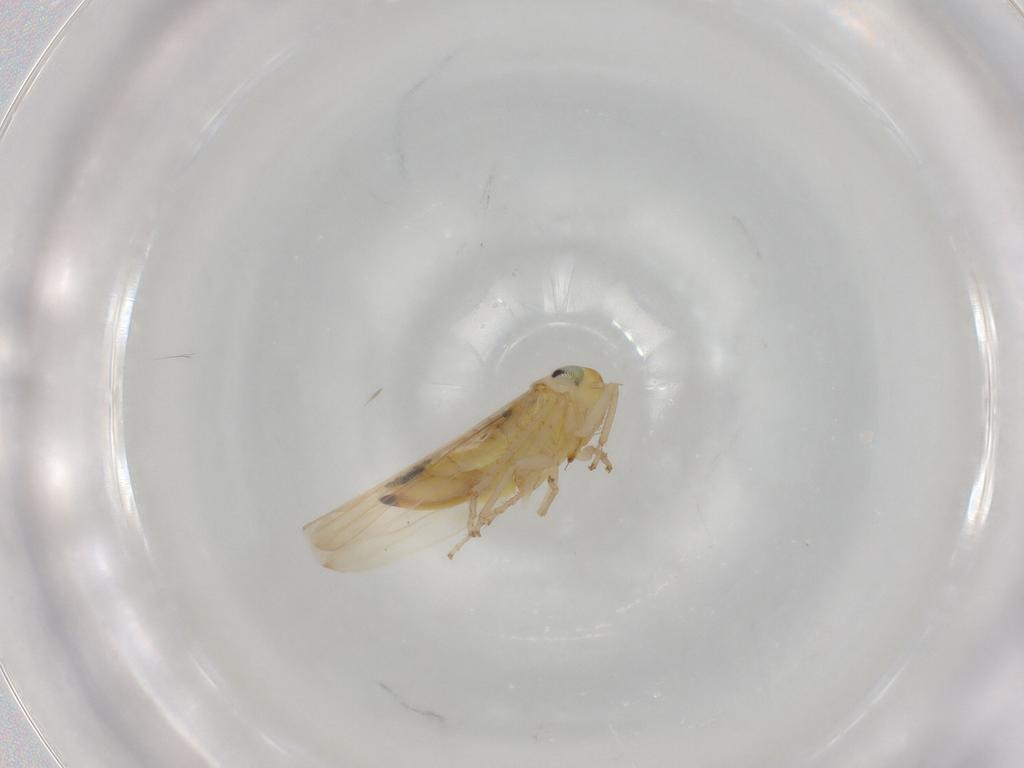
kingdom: Animalia
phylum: Arthropoda
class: Insecta
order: Hemiptera
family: Cicadellidae
